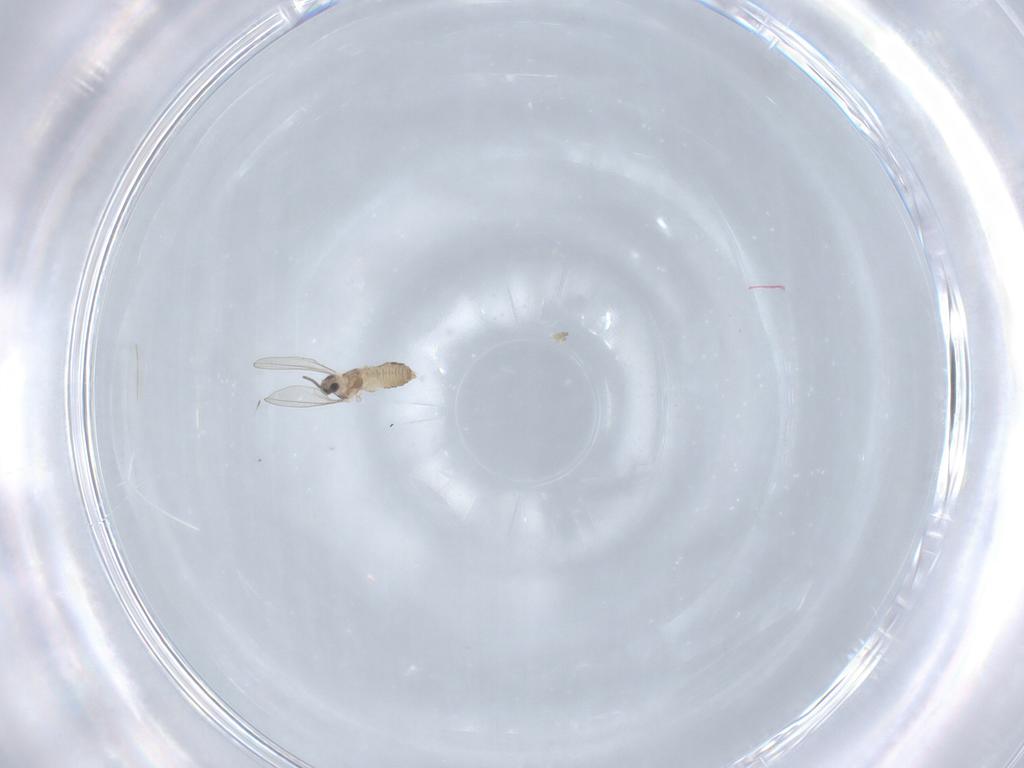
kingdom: Animalia
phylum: Arthropoda
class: Insecta
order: Diptera
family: Cecidomyiidae
